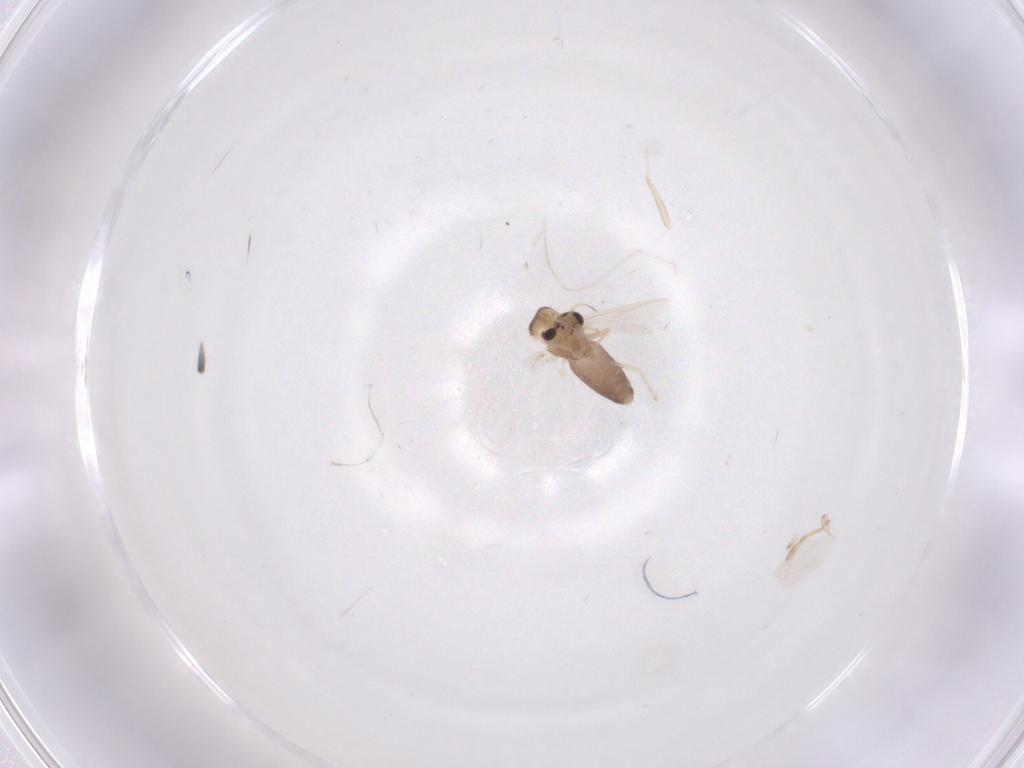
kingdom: Animalia
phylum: Arthropoda
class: Insecta
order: Diptera
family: Chironomidae
